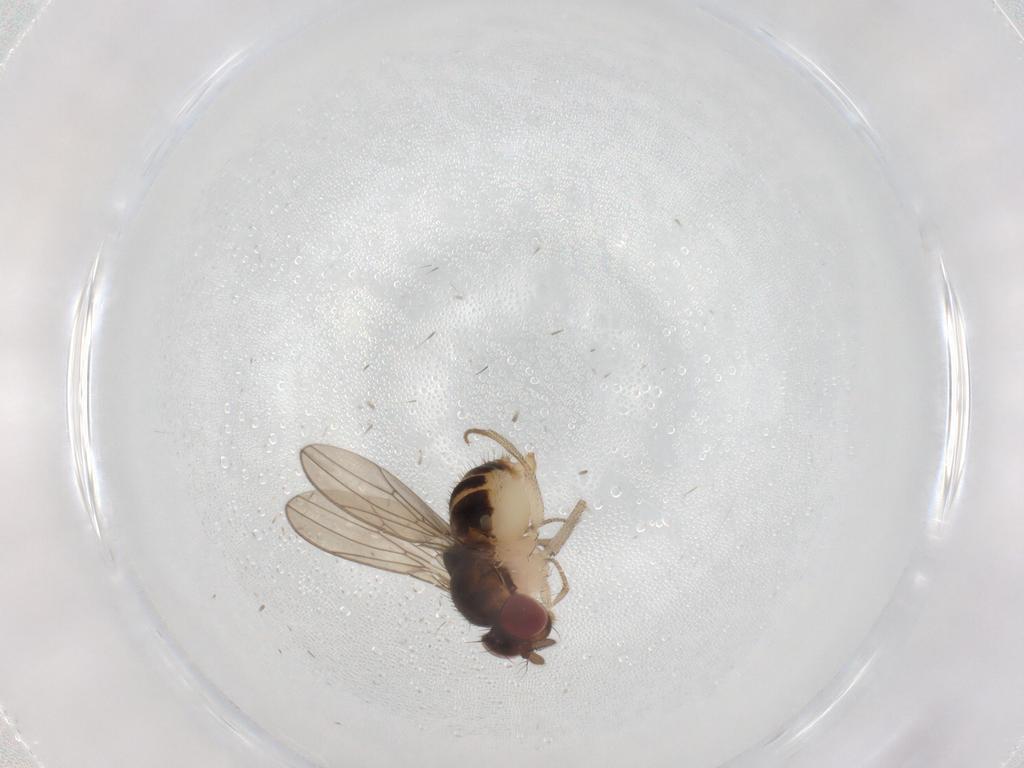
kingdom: Animalia
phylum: Arthropoda
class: Insecta
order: Diptera
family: Drosophilidae
